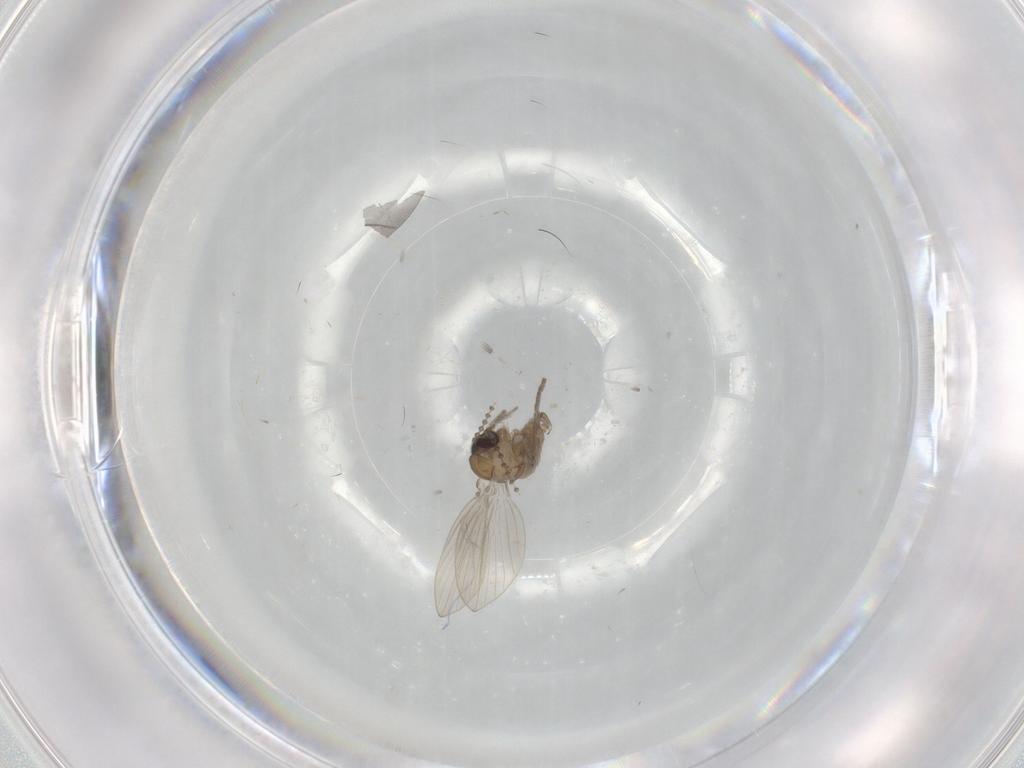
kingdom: Animalia
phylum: Arthropoda
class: Insecta
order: Diptera
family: Psychodidae
